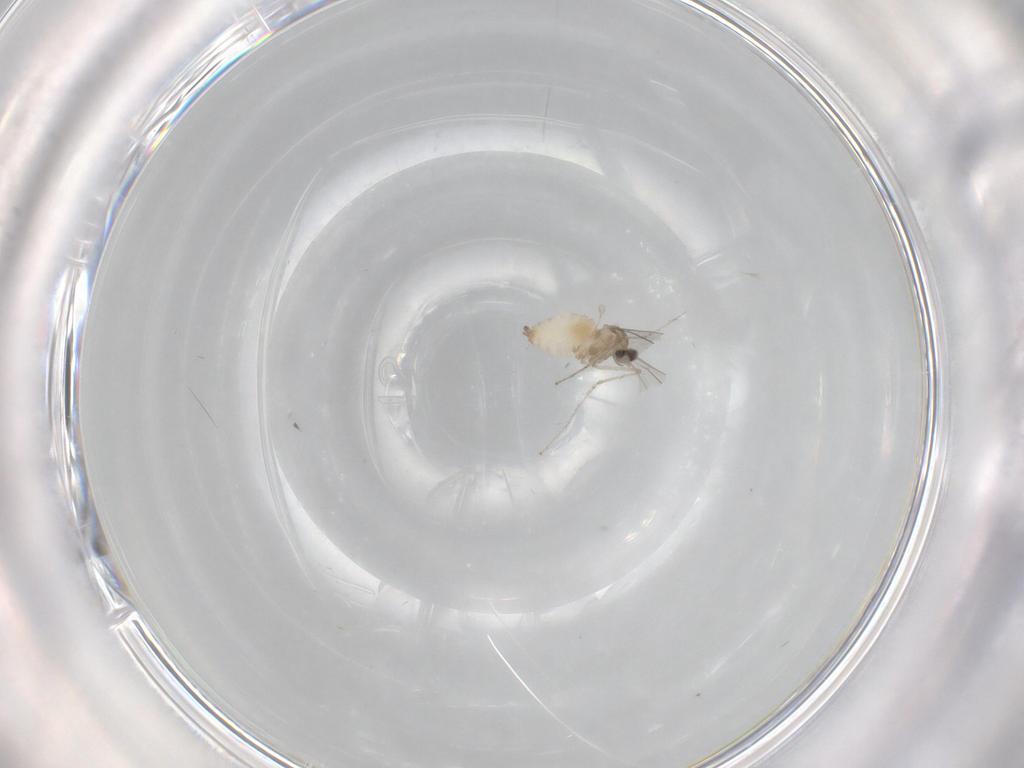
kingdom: Animalia
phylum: Arthropoda
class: Insecta
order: Diptera
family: Cecidomyiidae
